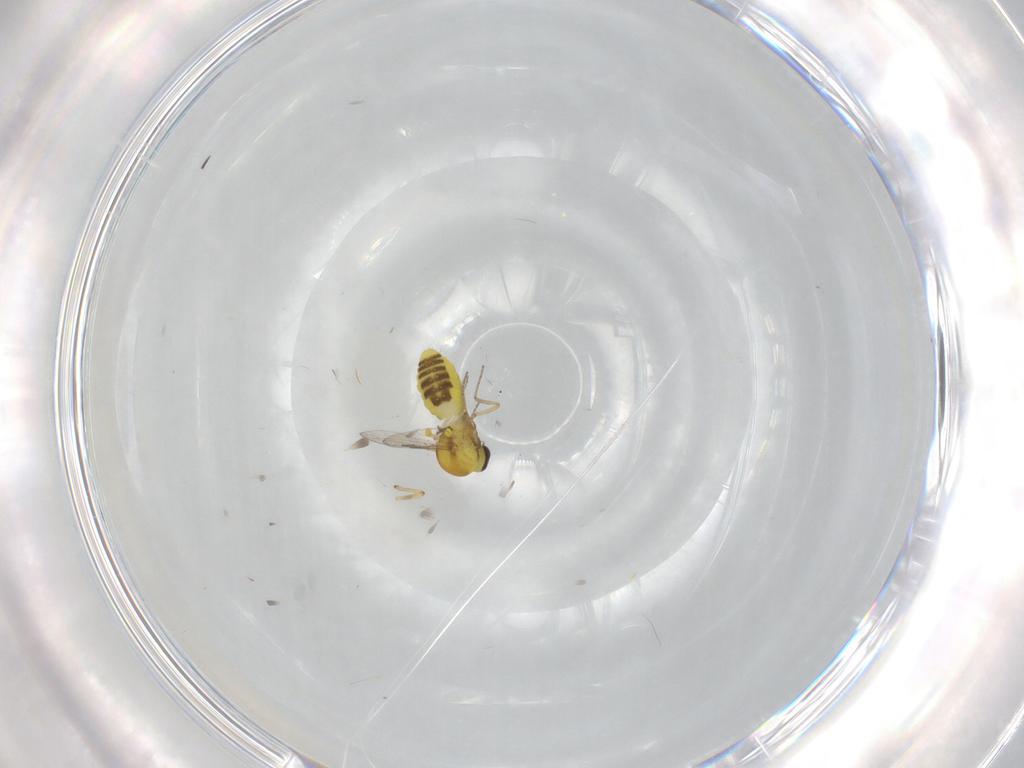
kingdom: Animalia
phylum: Arthropoda
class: Insecta
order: Diptera
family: Ceratopogonidae
